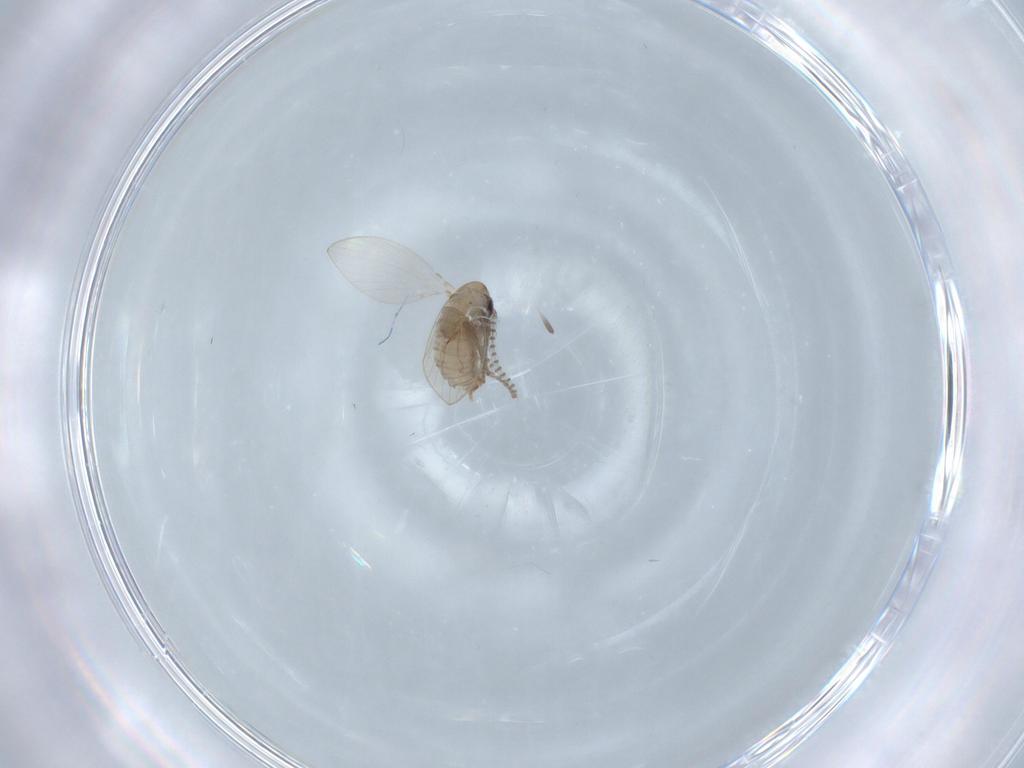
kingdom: Animalia
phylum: Arthropoda
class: Insecta
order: Diptera
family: Psychodidae
